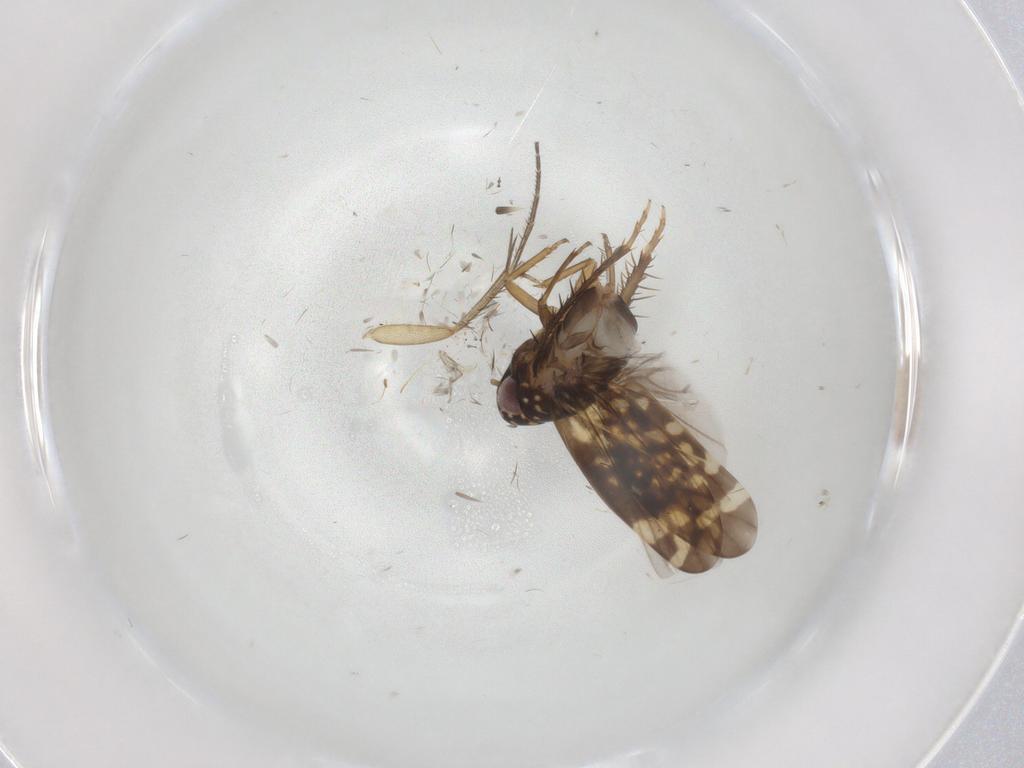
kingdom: Animalia
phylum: Arthropoda
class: Insecta
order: Hemiptera
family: Cicadellidae
